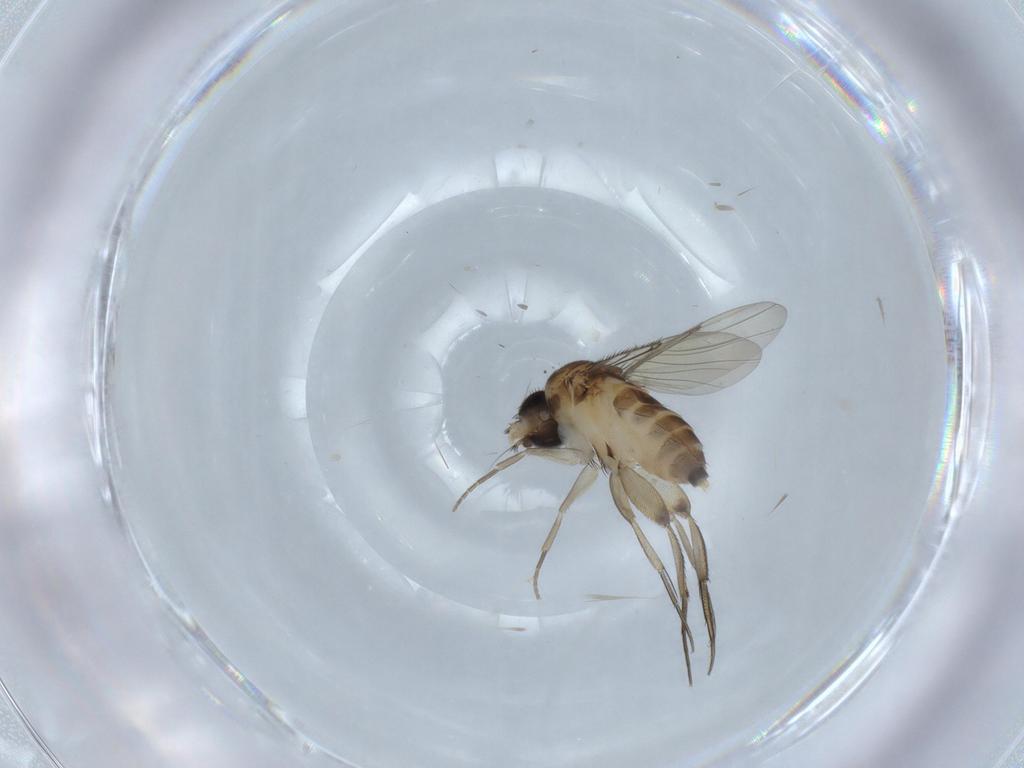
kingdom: Animalia
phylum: Arthropoda
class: Insecta
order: Diptera
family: Phoridae
